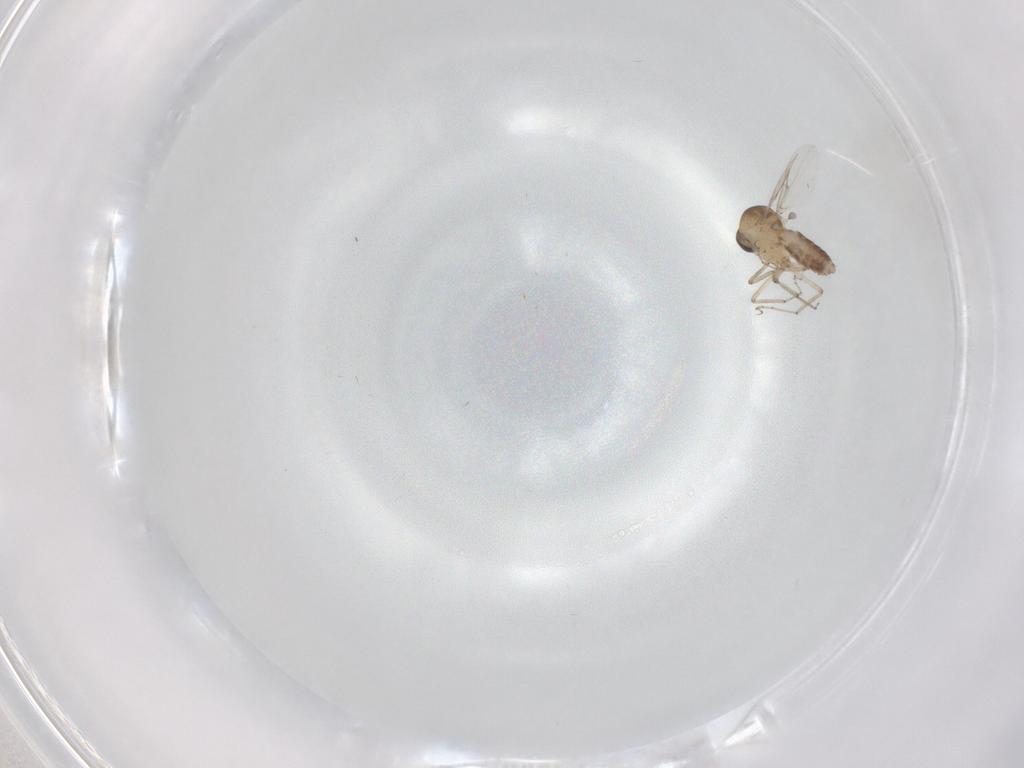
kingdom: Animalia
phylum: Arthropoda
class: Insecta
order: Diptera
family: Ceratopogonidae
